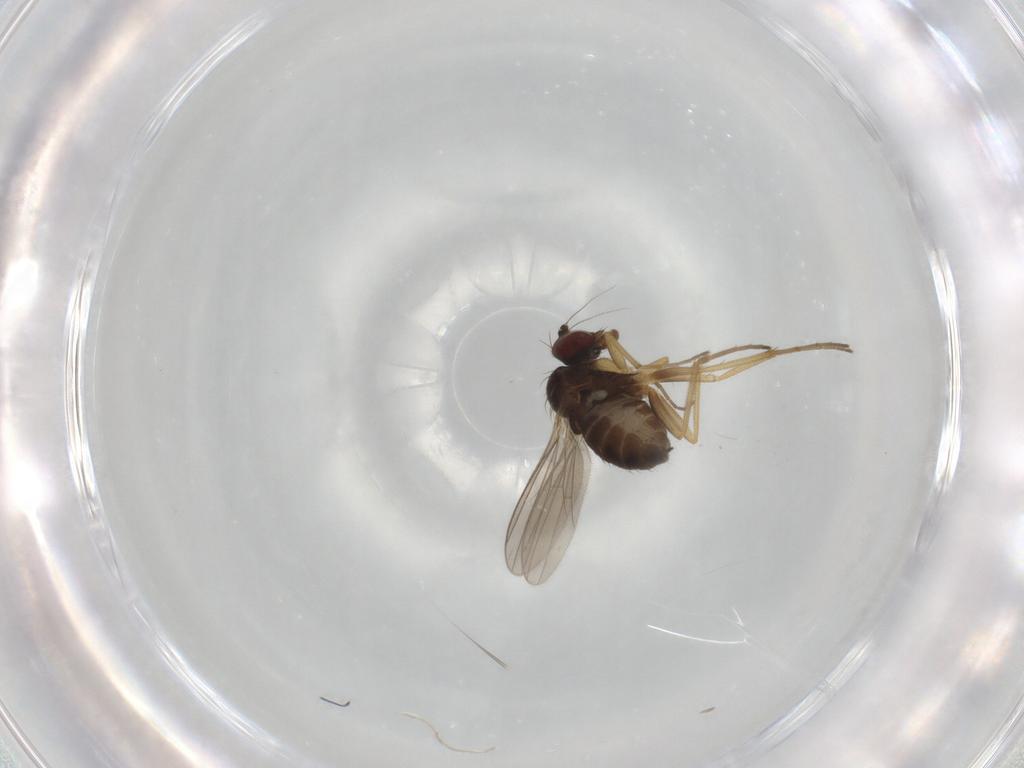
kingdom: Animalia
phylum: Arthropoda
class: Insecta
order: Diptera
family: Dolichopodidae
